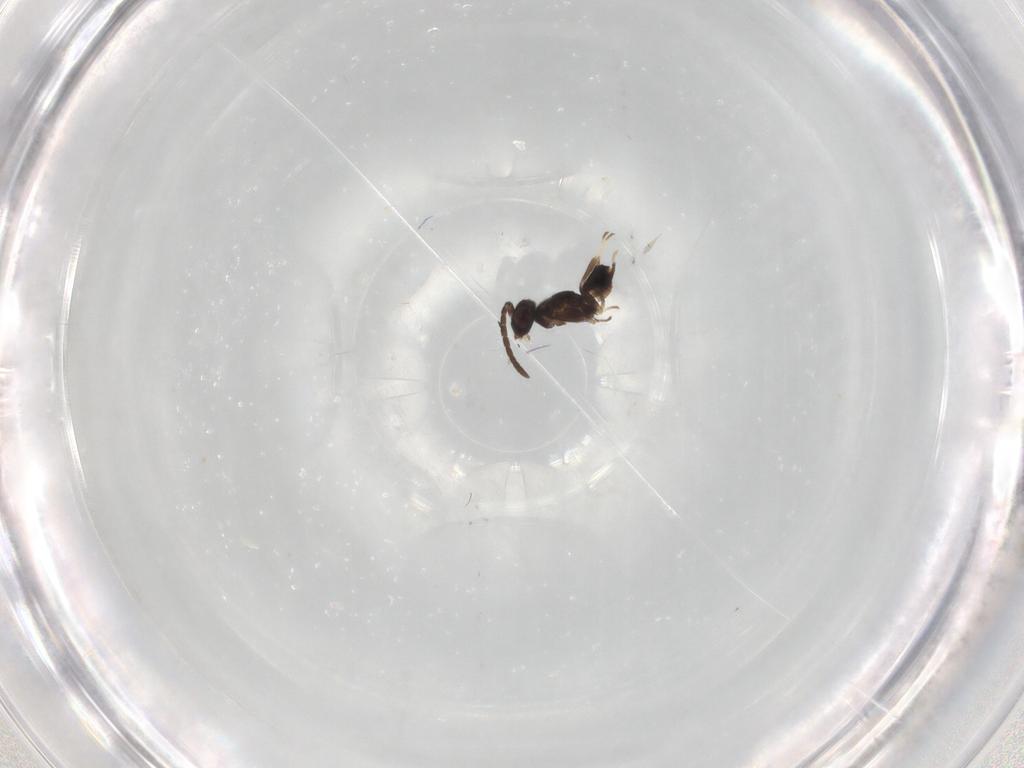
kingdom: Animalia
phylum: Arthropoda
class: Insecta
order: Hymenoptera
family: Eupelmidae
